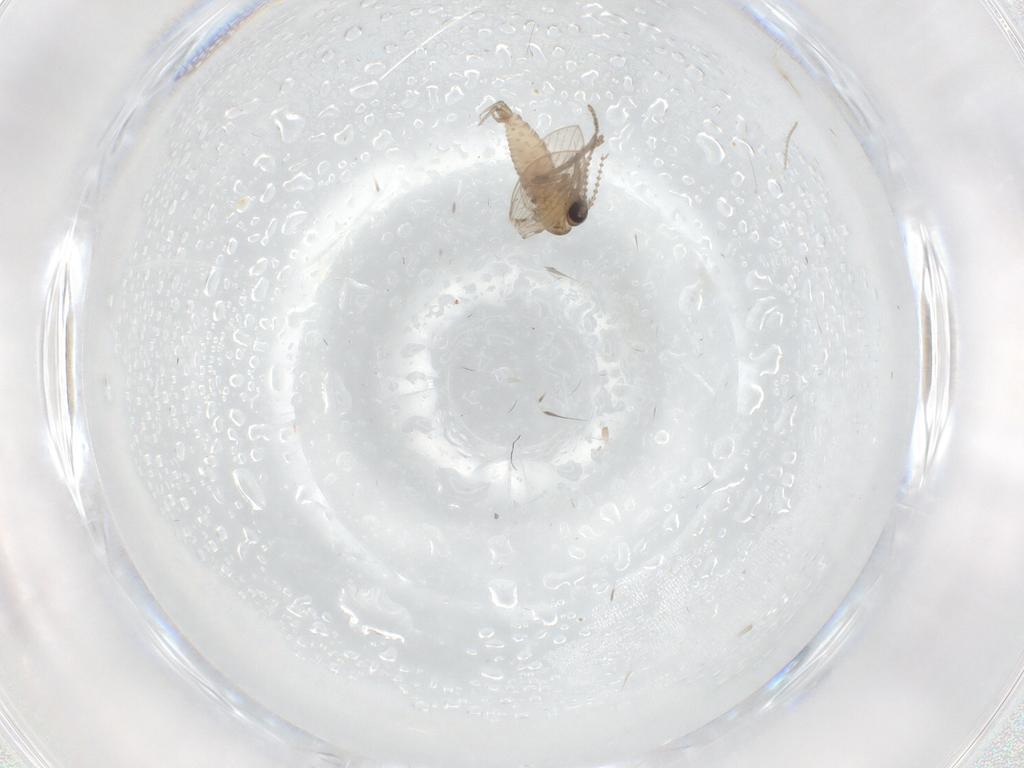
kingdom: Animalia
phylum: Arthropoda
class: Insecta
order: Diptera
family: Psychodidae
